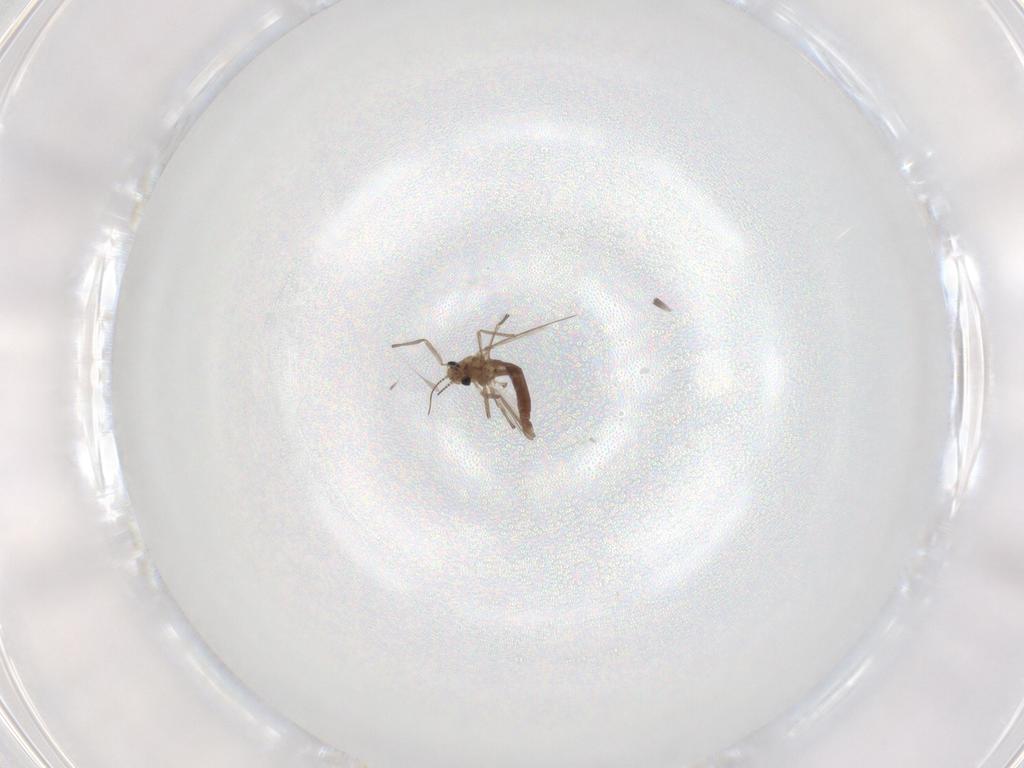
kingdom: Animalia
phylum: Arthropoda
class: Insecta
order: Diptera
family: Chironomidae
